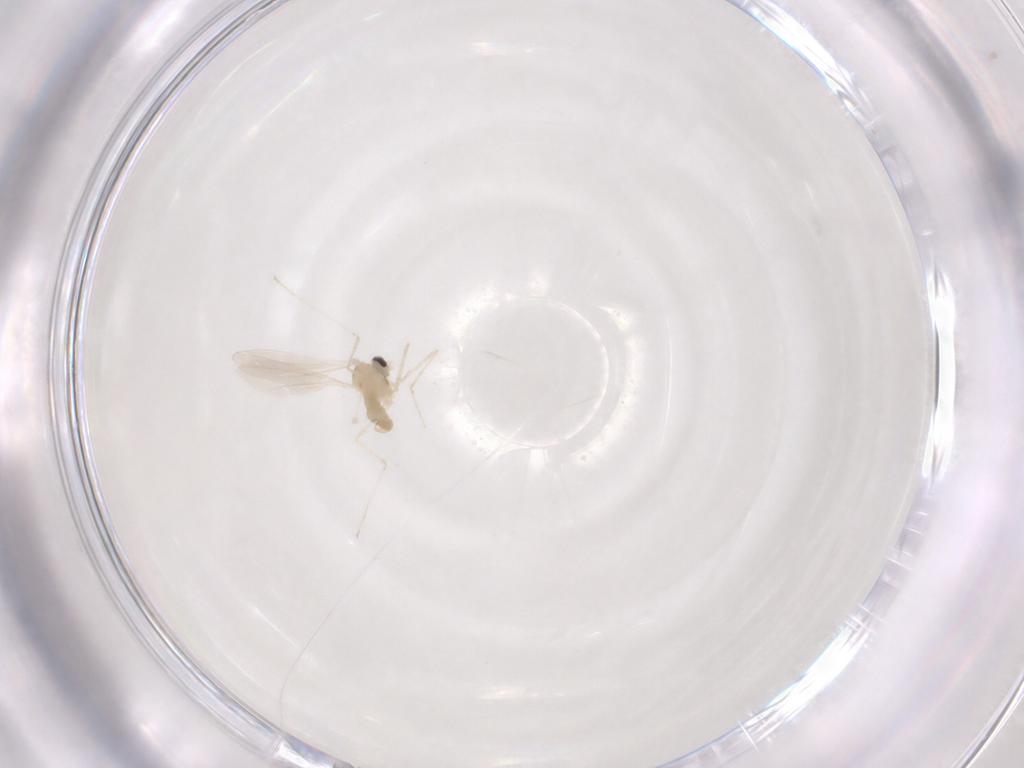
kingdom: Animalia
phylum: Arthropoda
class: Insecta
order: Diptera
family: Cecidomyiidae
